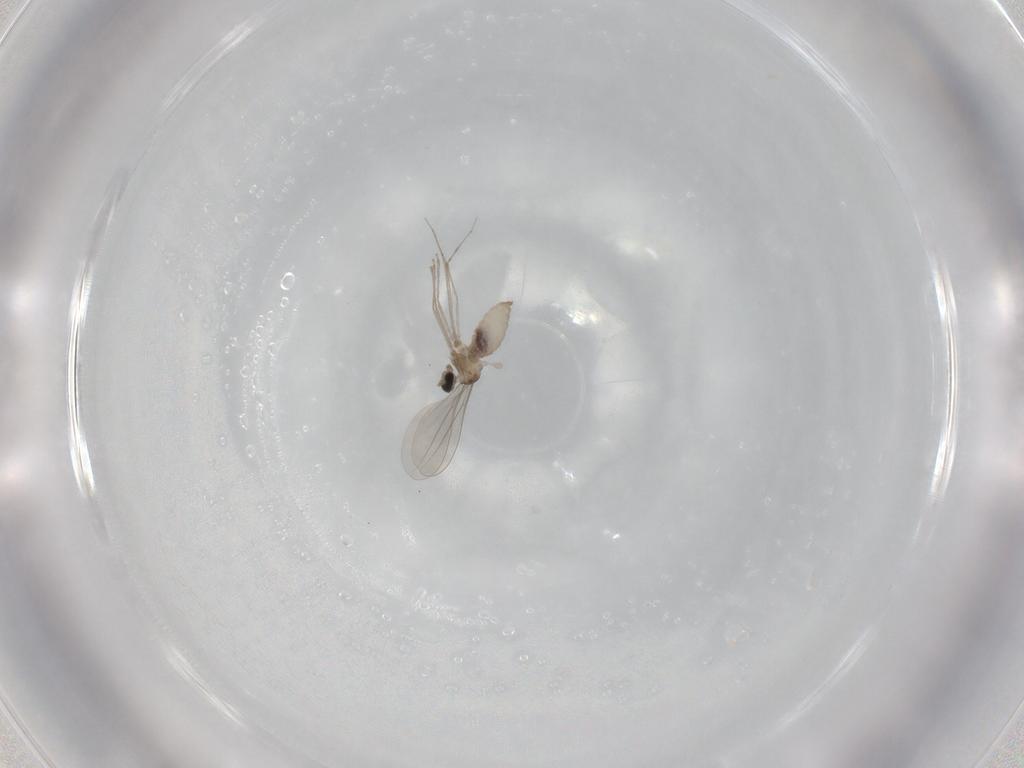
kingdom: Animalia
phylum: Arthropoda
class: Insecta
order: Diptera
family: Cecidomyiidae
